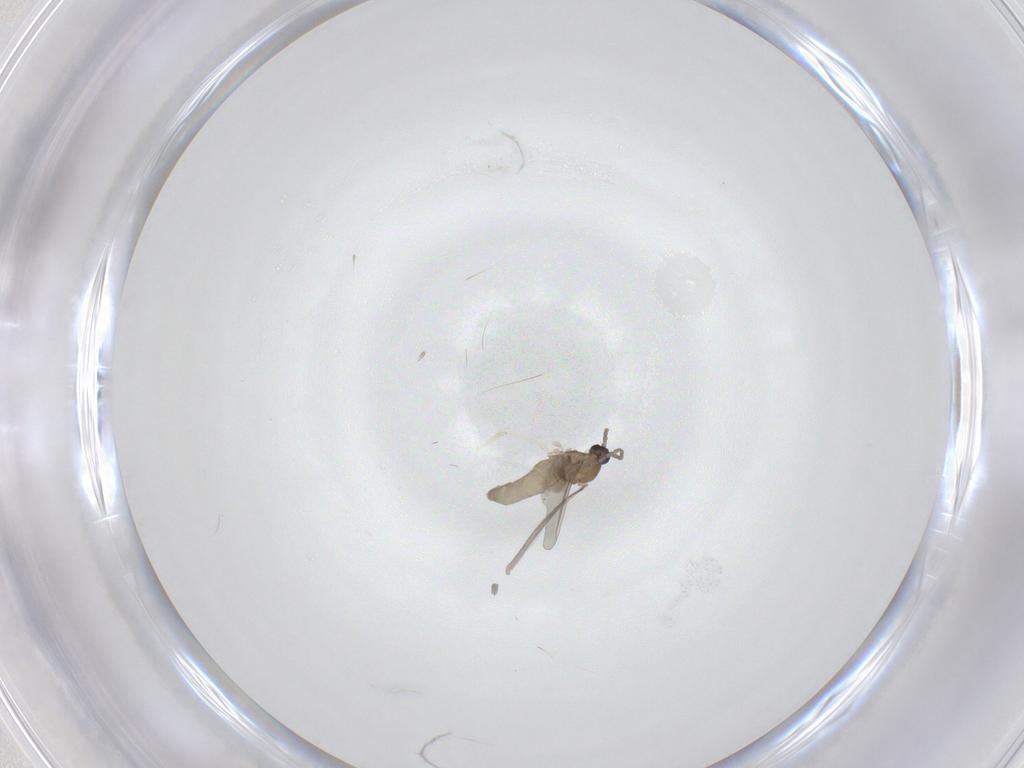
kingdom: Animalia
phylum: Arthropoda
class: Insecta
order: Diptera
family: Cecidomyiidae
